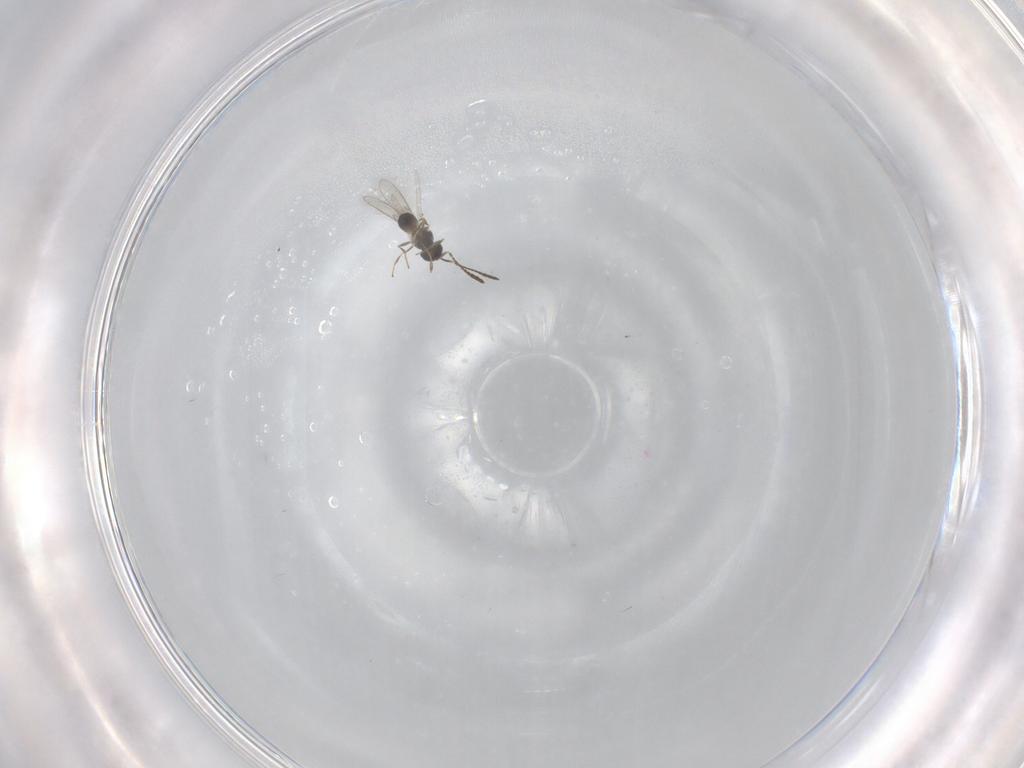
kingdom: Animalia
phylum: Arthropoda
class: Insecta
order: Hymenoptera
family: Scelionidae
